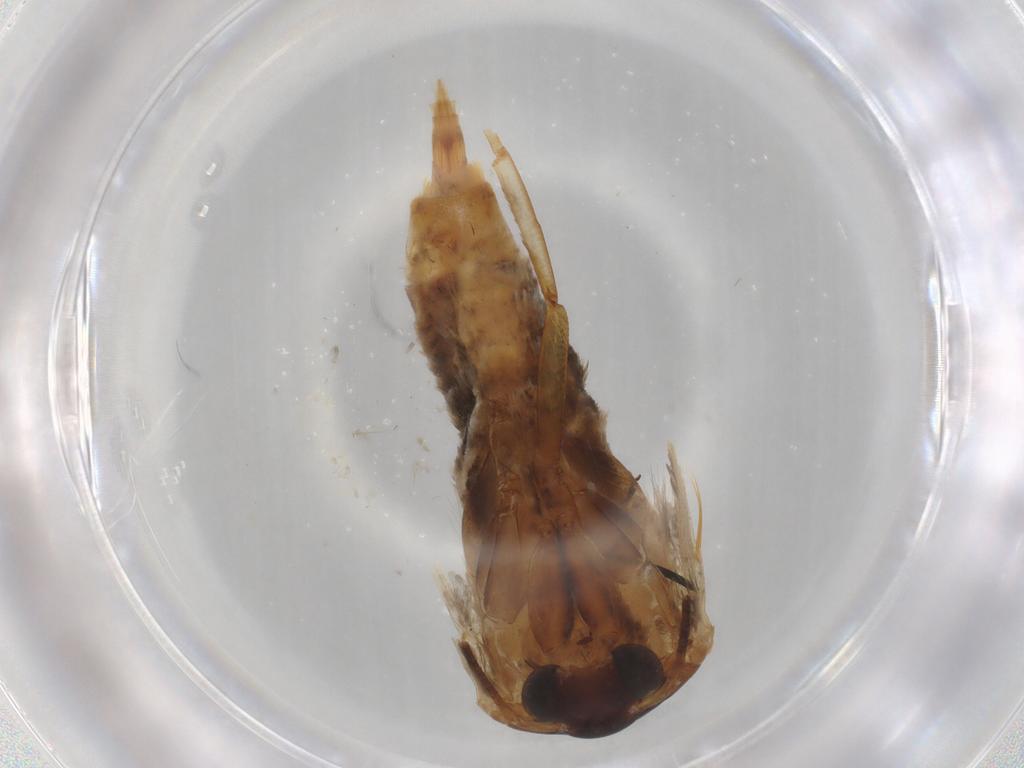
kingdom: Animalia
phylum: Arthropoda
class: Insecta
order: Lepidoptera
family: Blastobasidae
